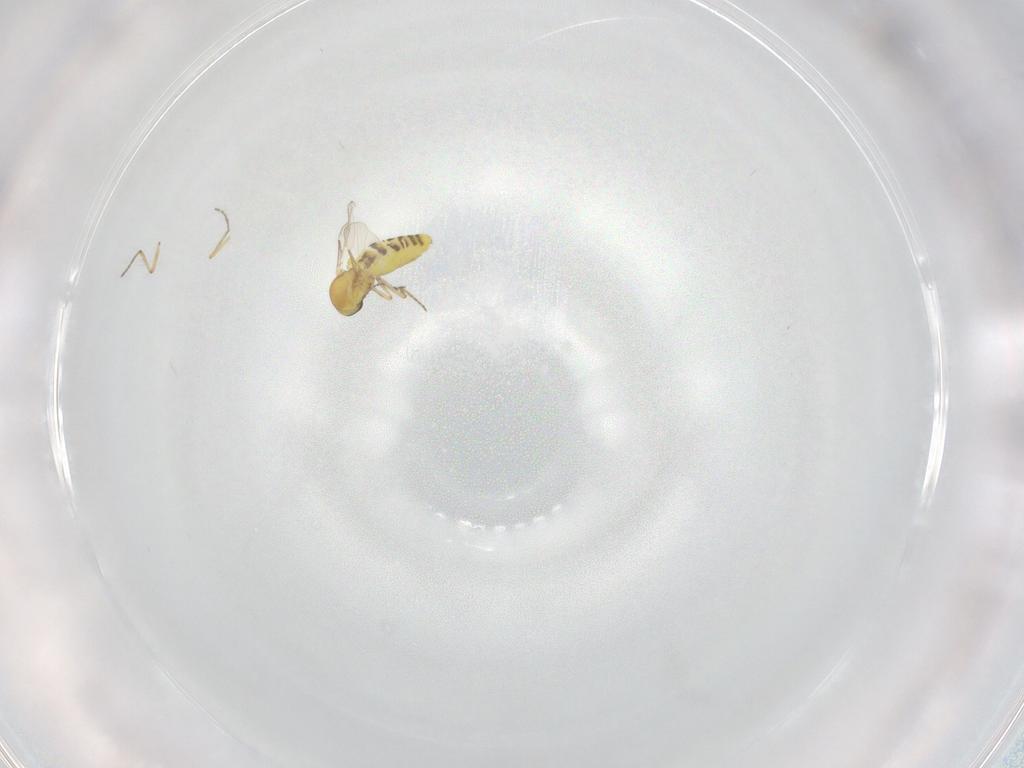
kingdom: Animalia
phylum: Arthropoda
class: Insecta
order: Diptera
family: Ceratopogonidae
